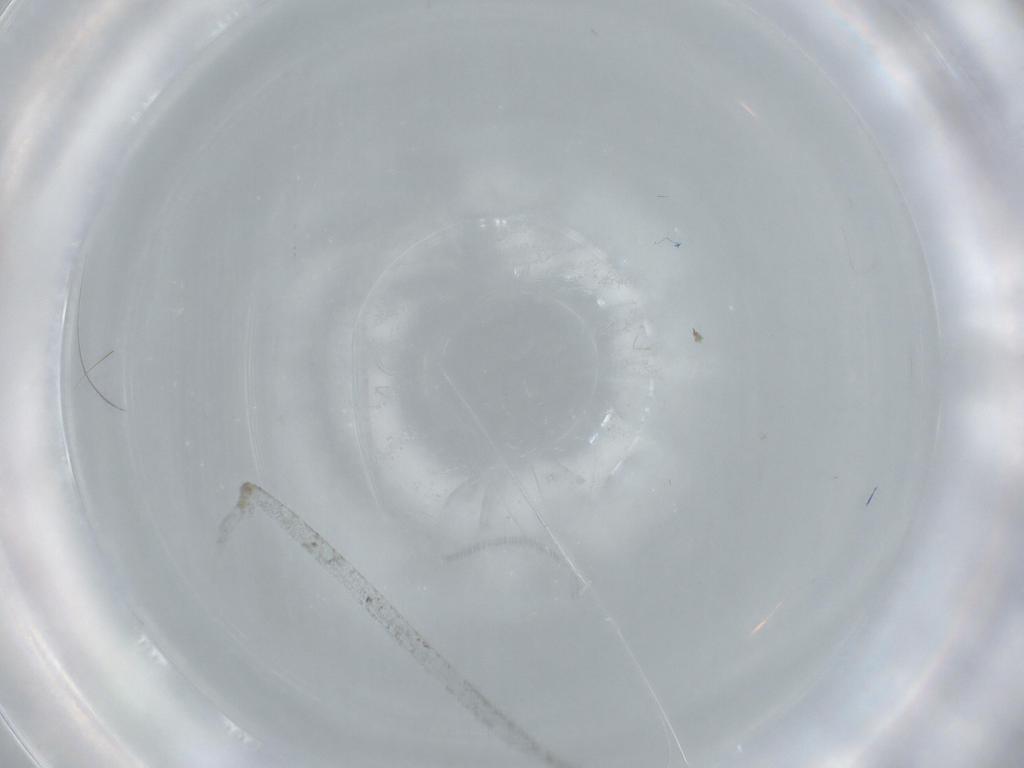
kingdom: Animalia
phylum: Arthropoda
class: Insecta
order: Diptera
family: Cecidomyiidae
